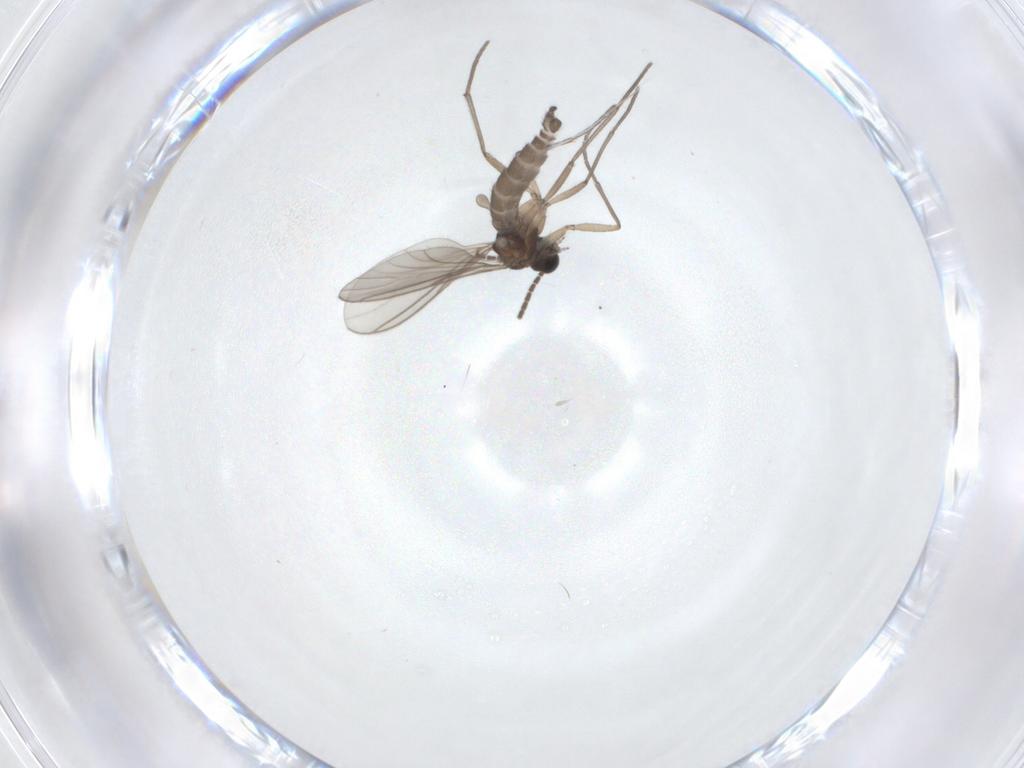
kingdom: Animalia
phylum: Arthropoda
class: Insecta
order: Diptera
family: Sciaridae
